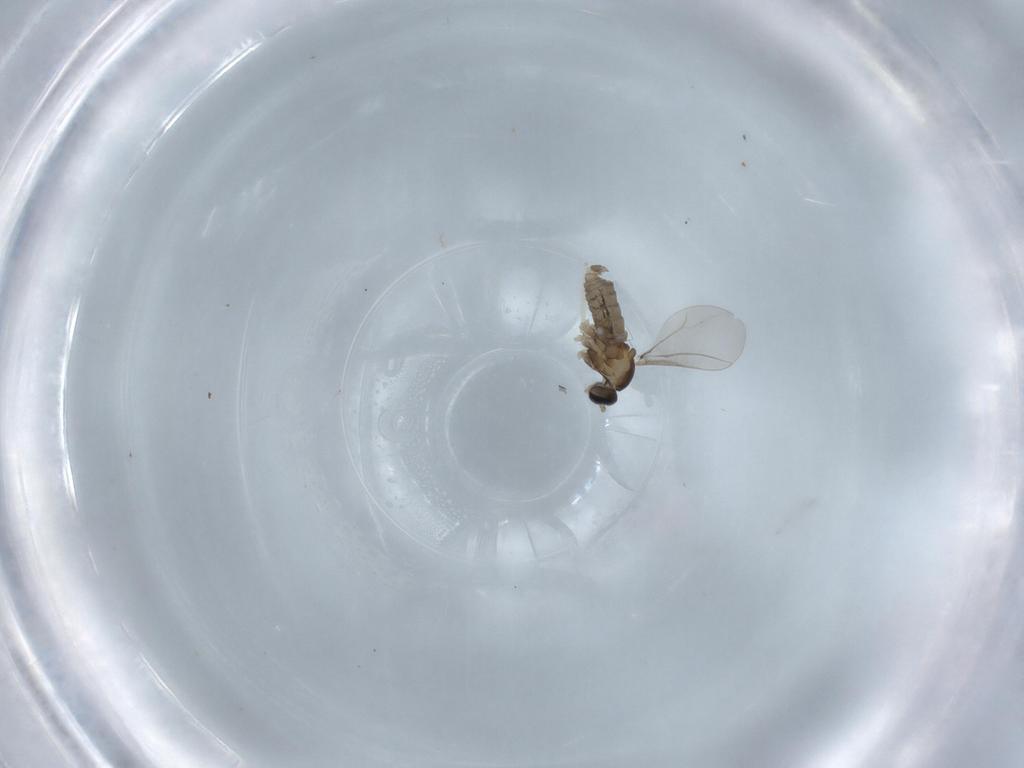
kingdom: Animalia
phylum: Arthropoda
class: Insecta
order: Diptera
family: Cecidomyiidae
